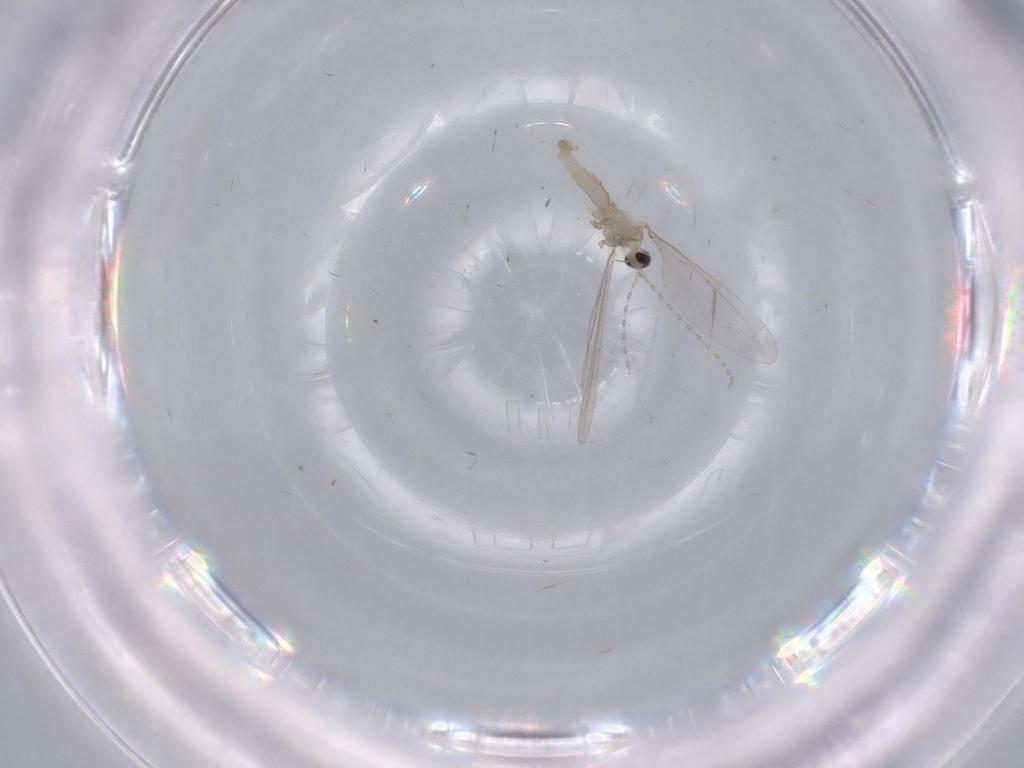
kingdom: Animalia
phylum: Arthropoda
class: Insecta
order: Diptera
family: Cecidomyiidae
